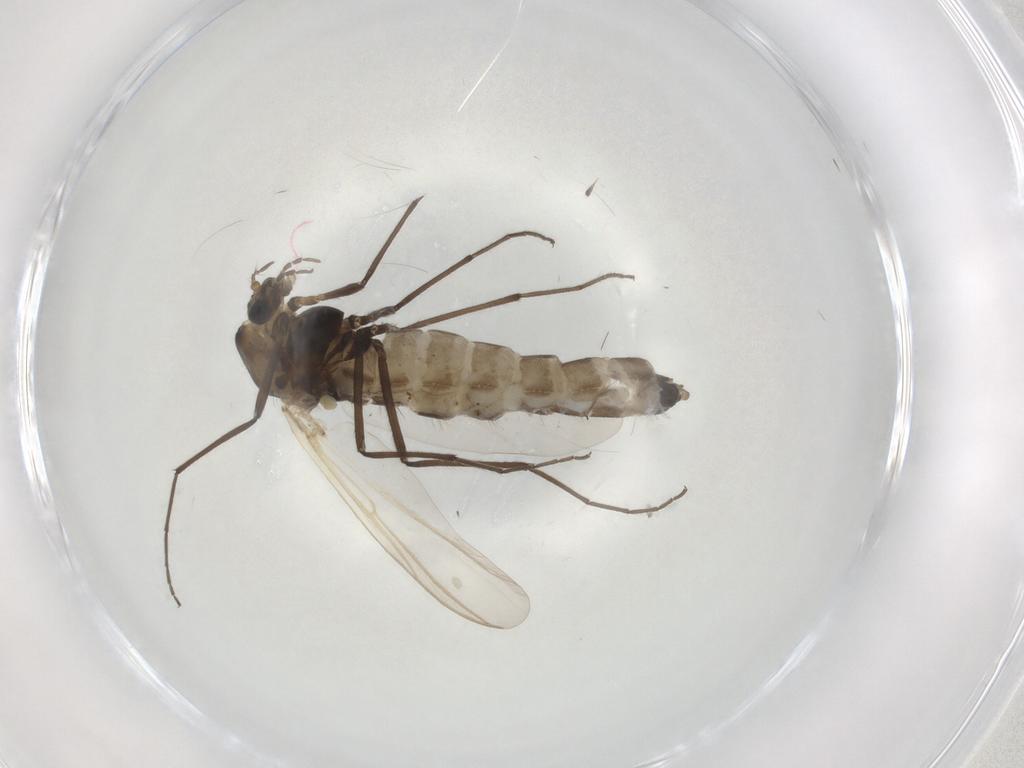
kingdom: Animalia
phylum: Arthropoda
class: Insecta
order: Diptera
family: Chironomidae
